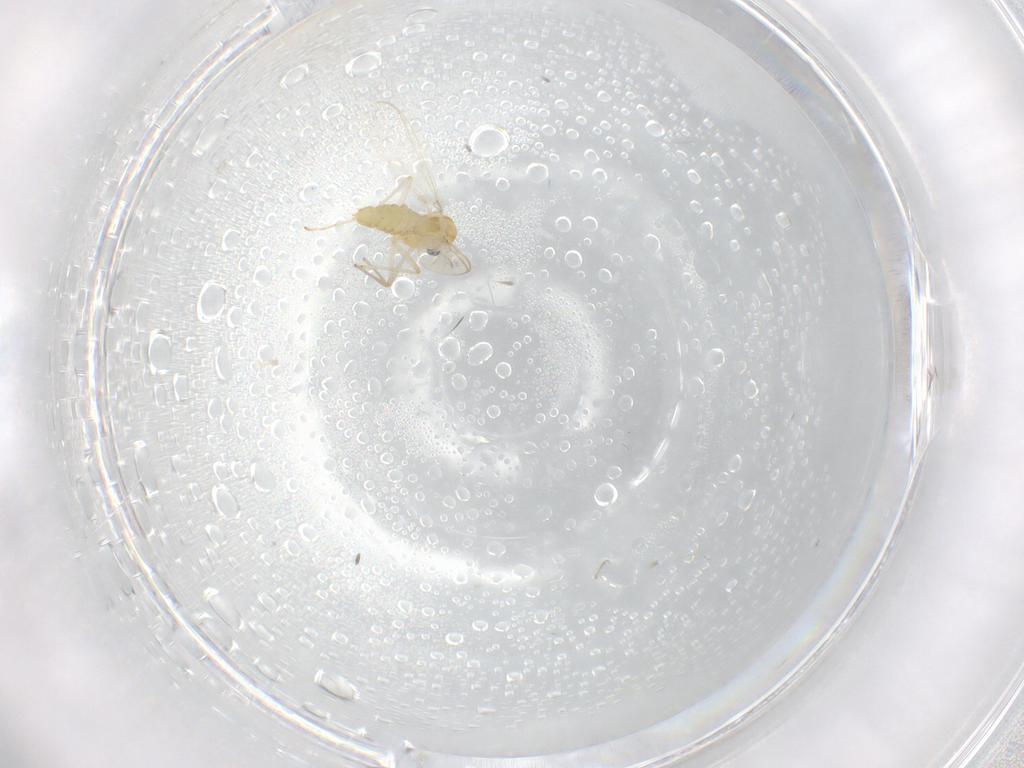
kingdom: Animalia
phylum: Arthropoda
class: Insecta
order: Diptera
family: Chironomidae
